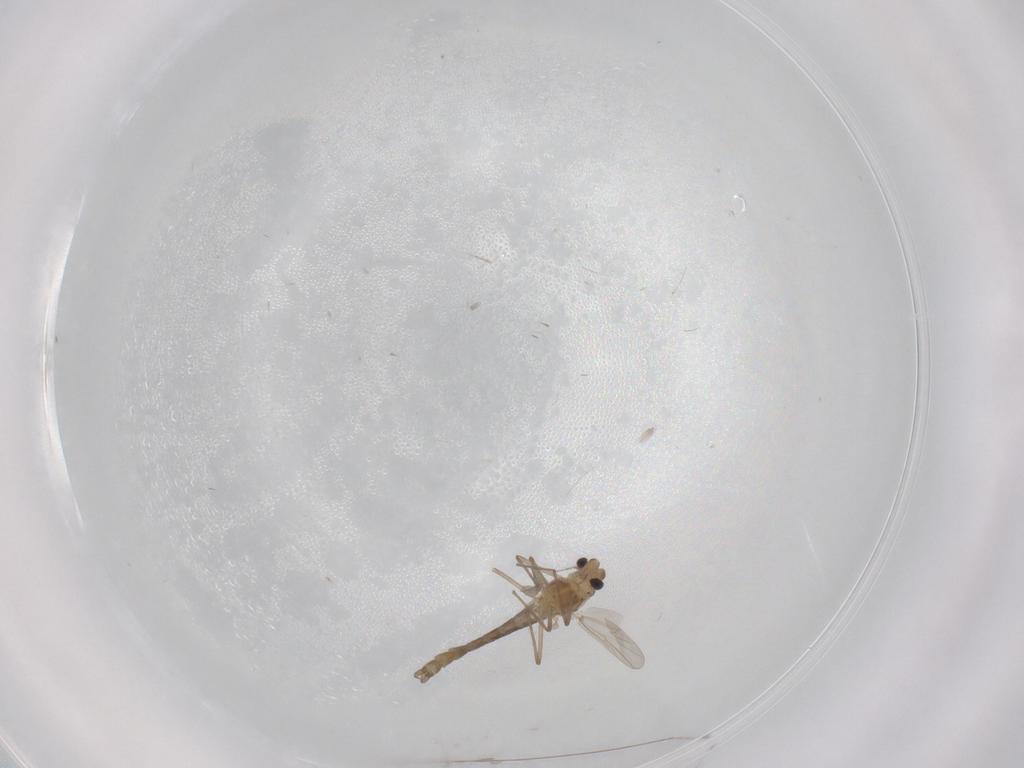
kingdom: Animalia
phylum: Arthropoda
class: Insecta
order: Diptera
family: Chironomidae
